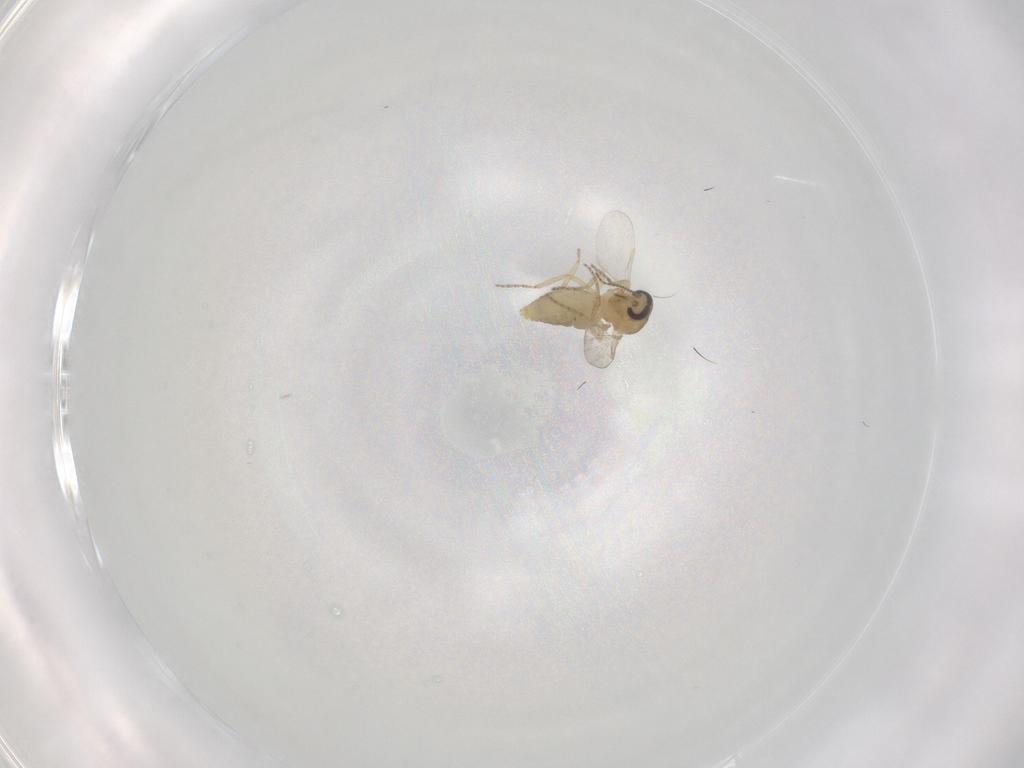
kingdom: Animalia
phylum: Arthropoda
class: Insecta
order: Diptera
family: Ceratopogonidae
